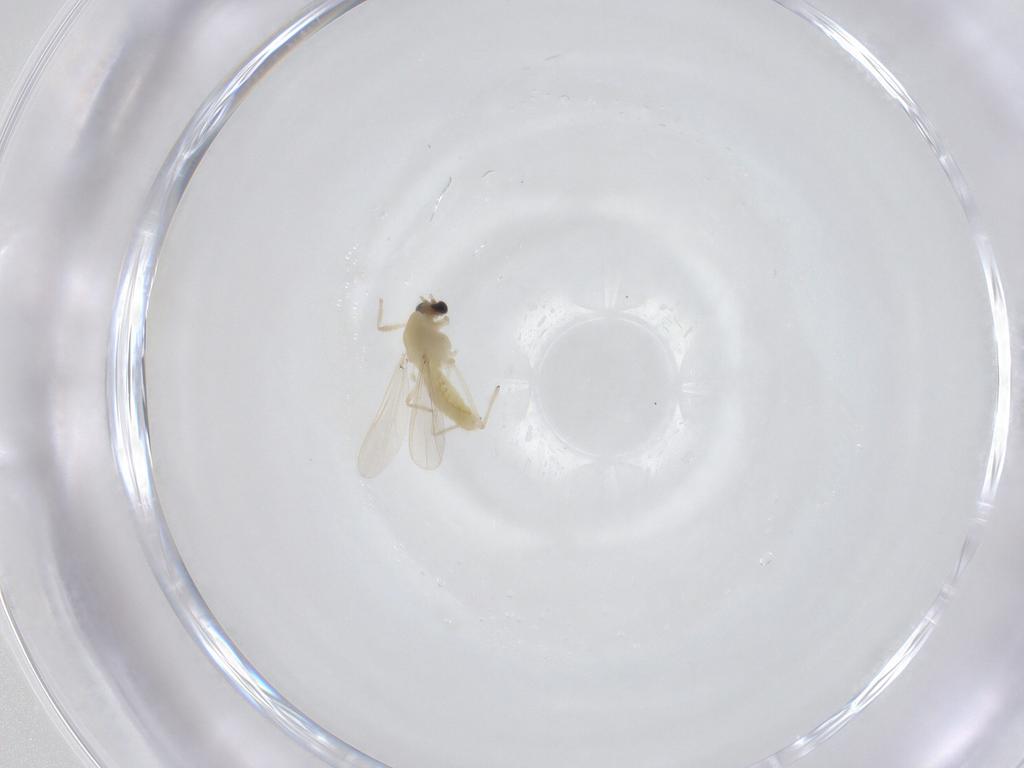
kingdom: Animalia
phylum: Arthropoda
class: Insecta
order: Diptera
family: Chironomidae
